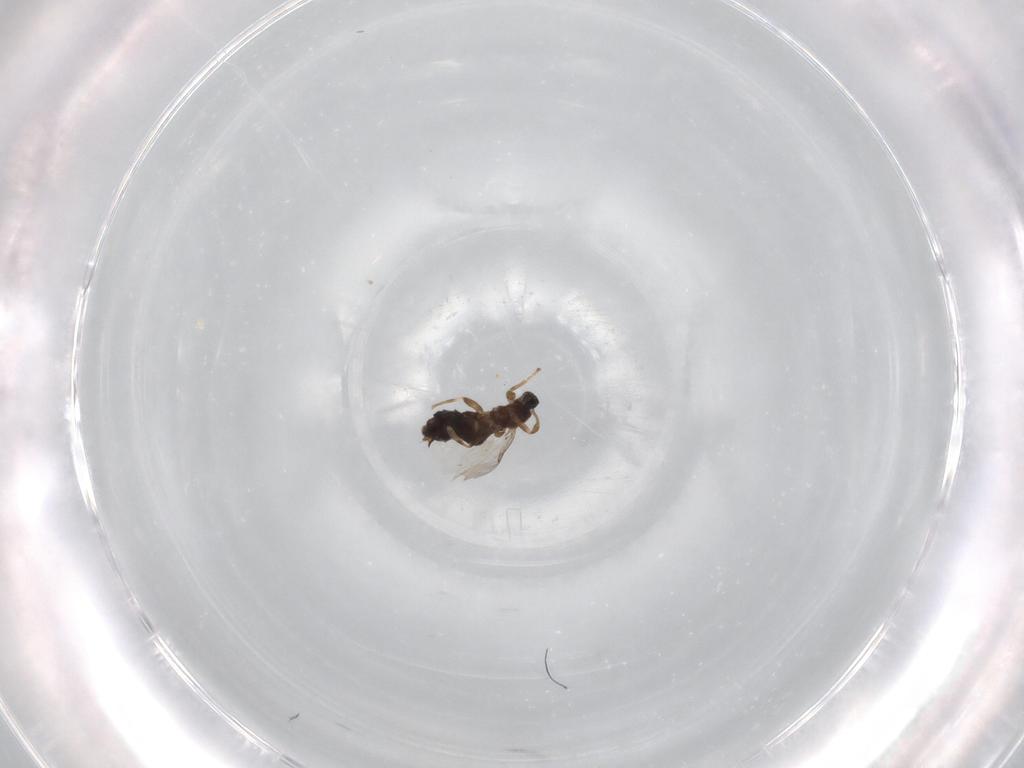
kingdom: Animalia
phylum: Arthropoda
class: Insecta
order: Diptera
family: Scatopsidae
